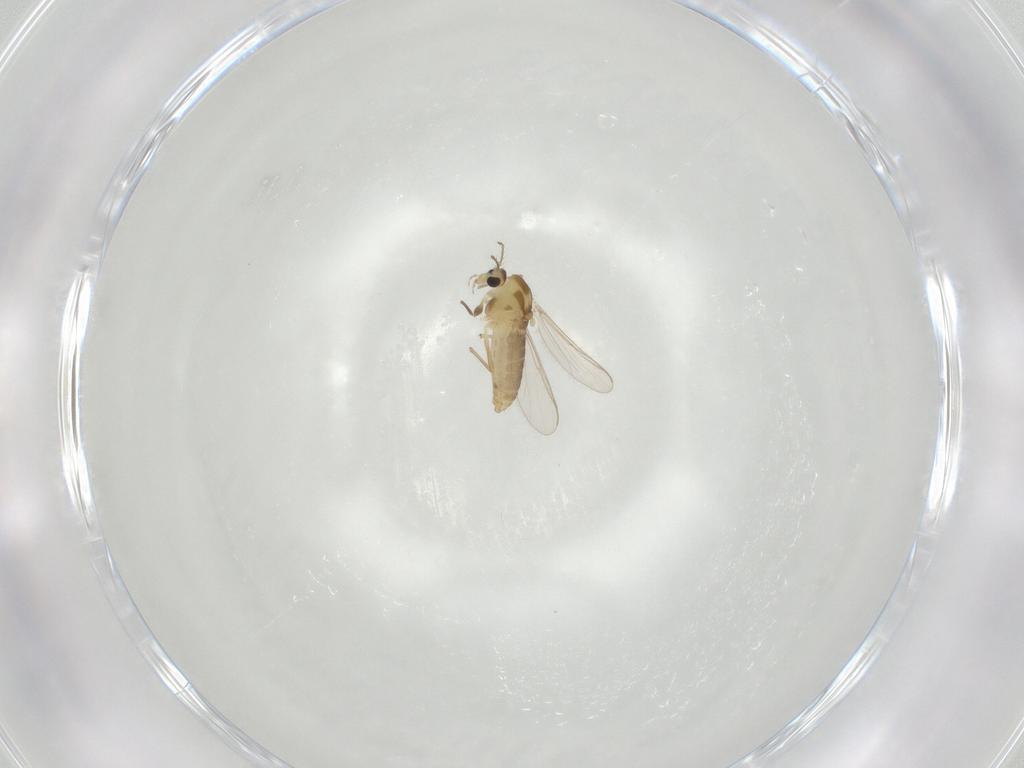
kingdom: Animalia
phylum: Arthropoda
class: Insecta
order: Diptera
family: Chironomidae
